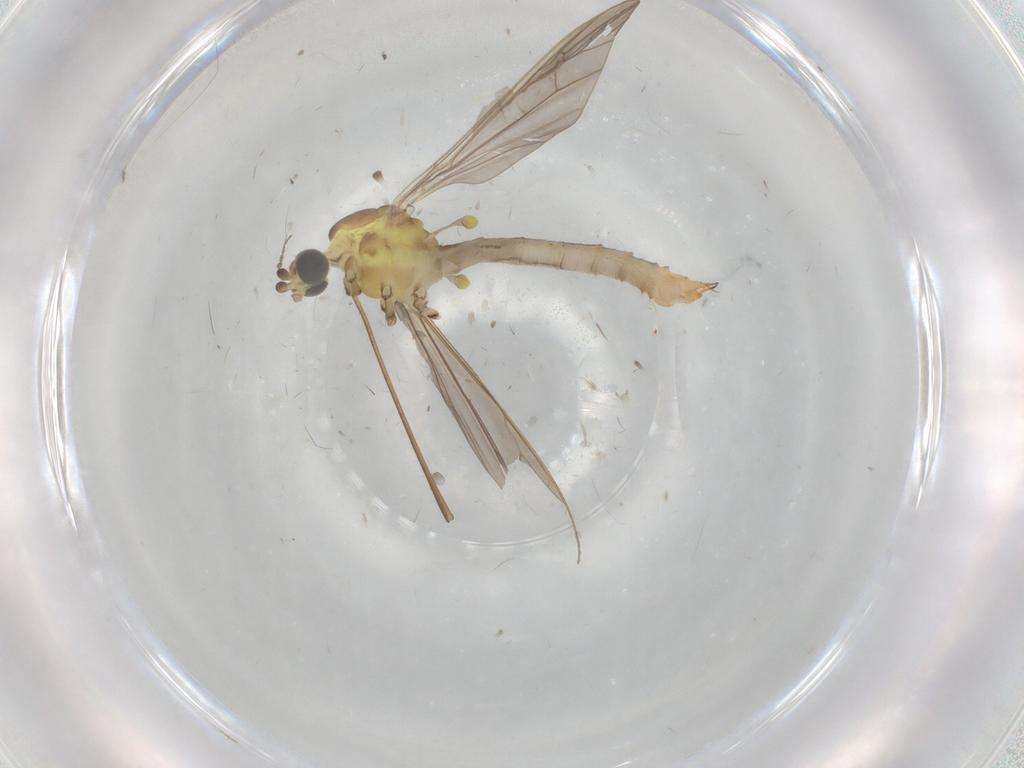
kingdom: Animalia
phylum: Arthropoda
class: Insecta
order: Diptera
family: Limoniidae
